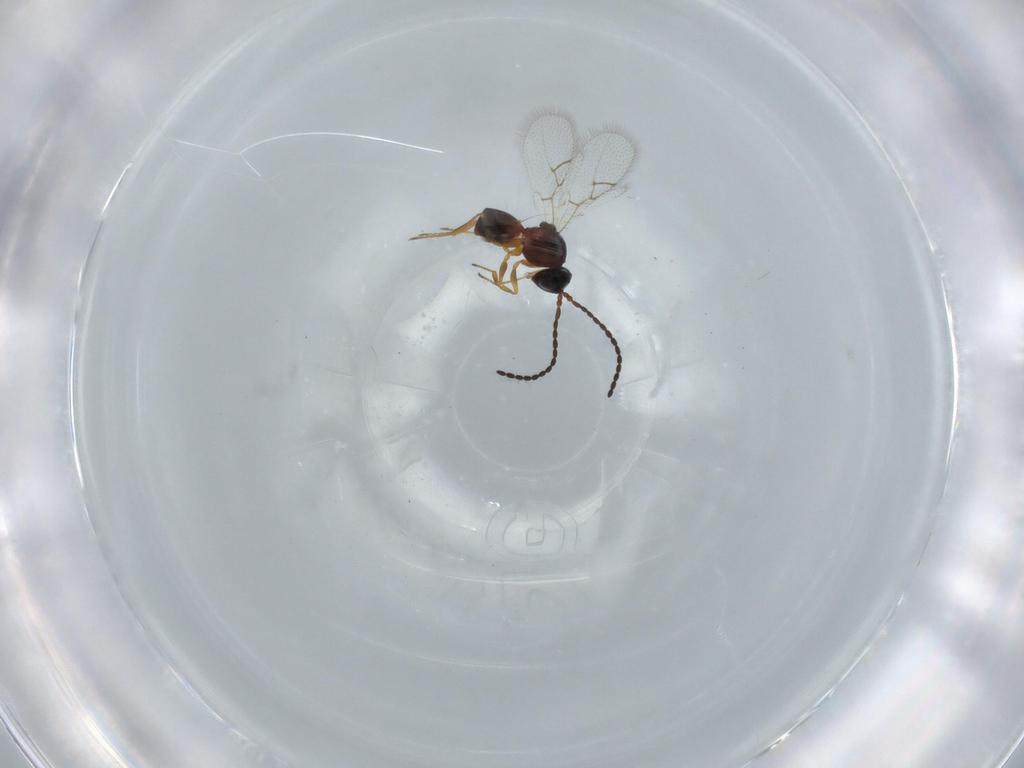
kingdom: Animalia
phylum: Arthropoda
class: Insecta
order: Hymenoptera
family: Figitidae
